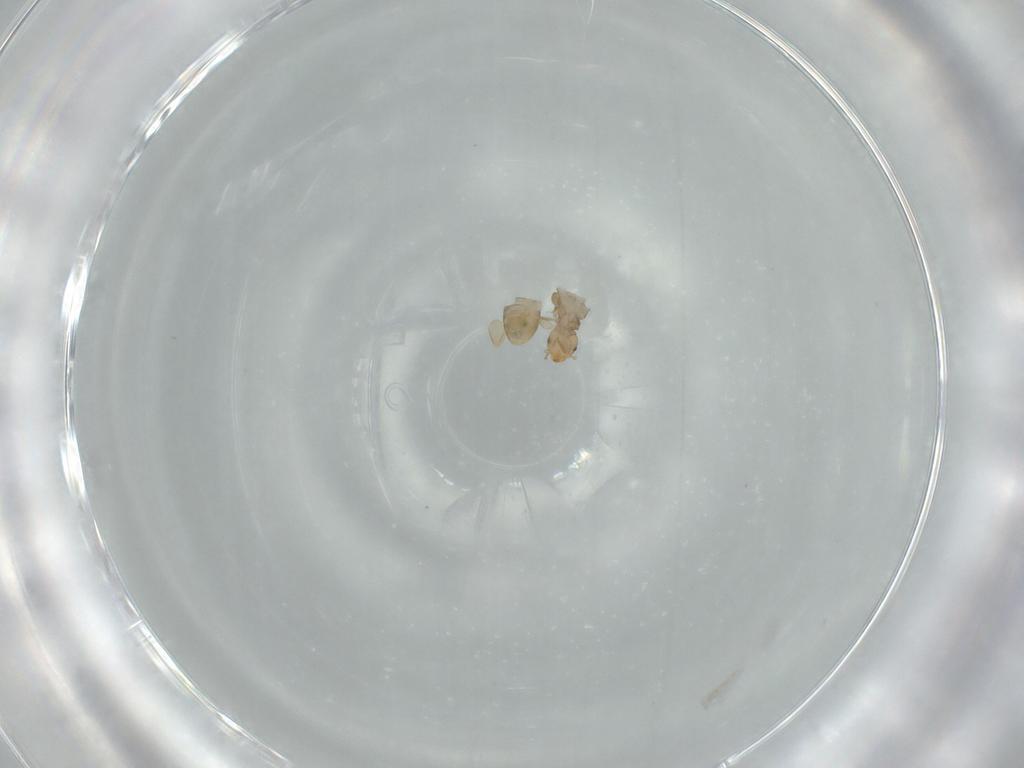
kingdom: Animalia
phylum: Arthropoda
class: Insecta
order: Psocodea
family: Liposcelididae
